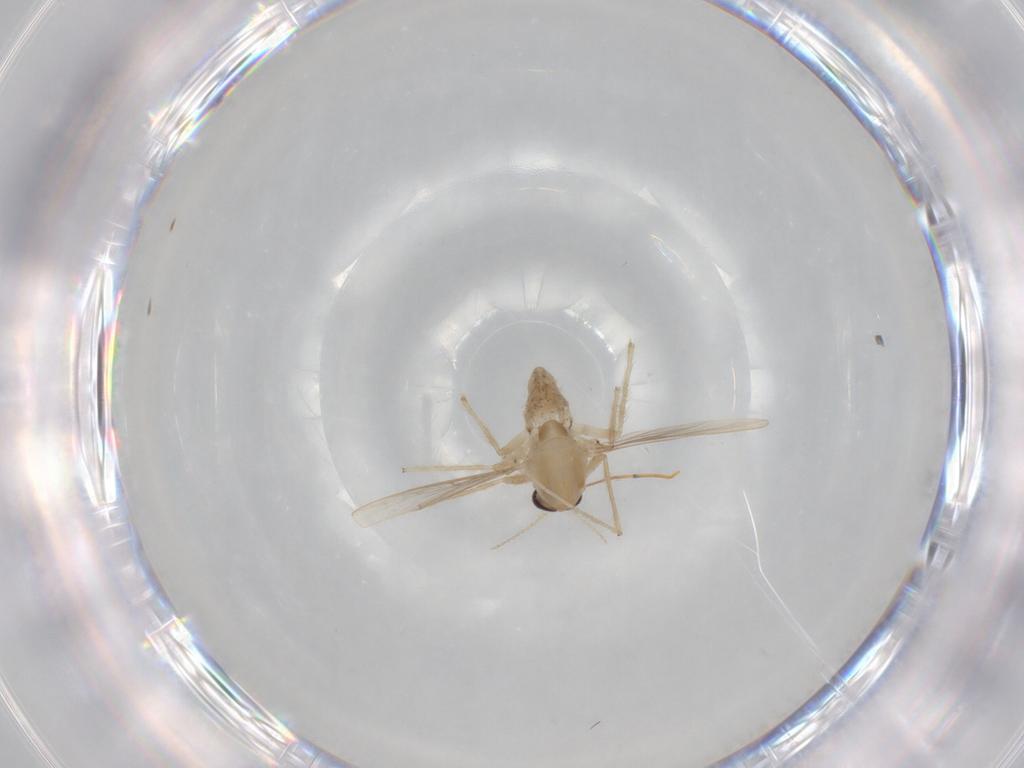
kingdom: Animalia
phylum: Arthropoda
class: Insecta
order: Diptera
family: Chironomidae
